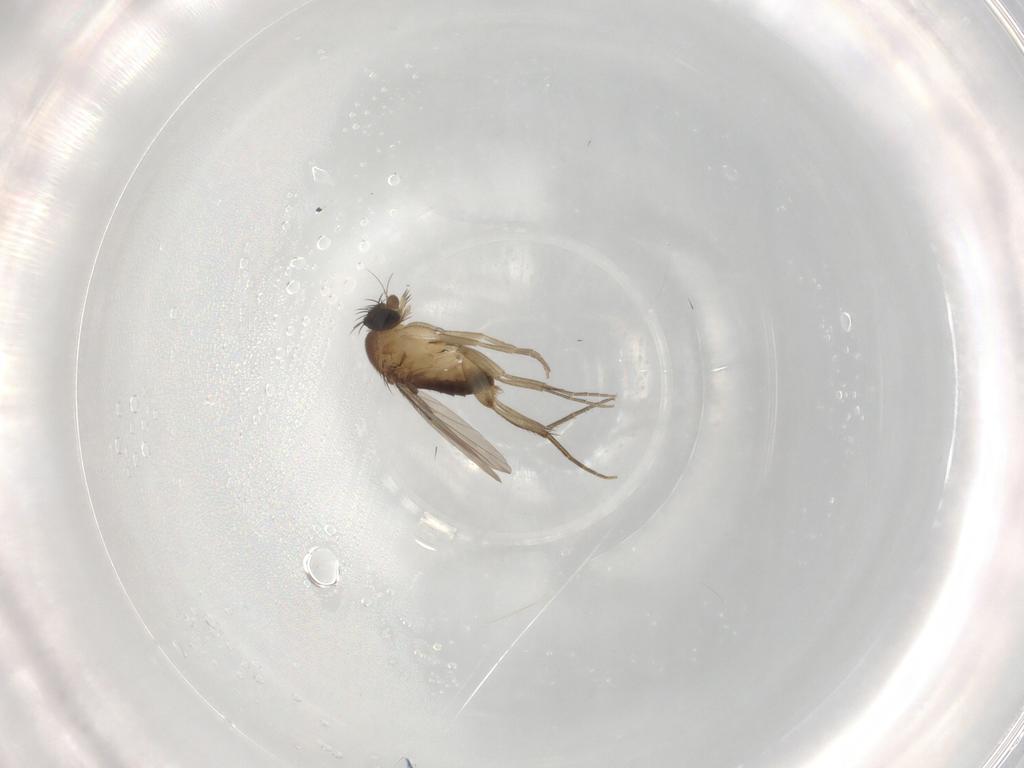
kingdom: Animalia
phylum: Arthropoda
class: Insecta
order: Diptera
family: Phoridae
